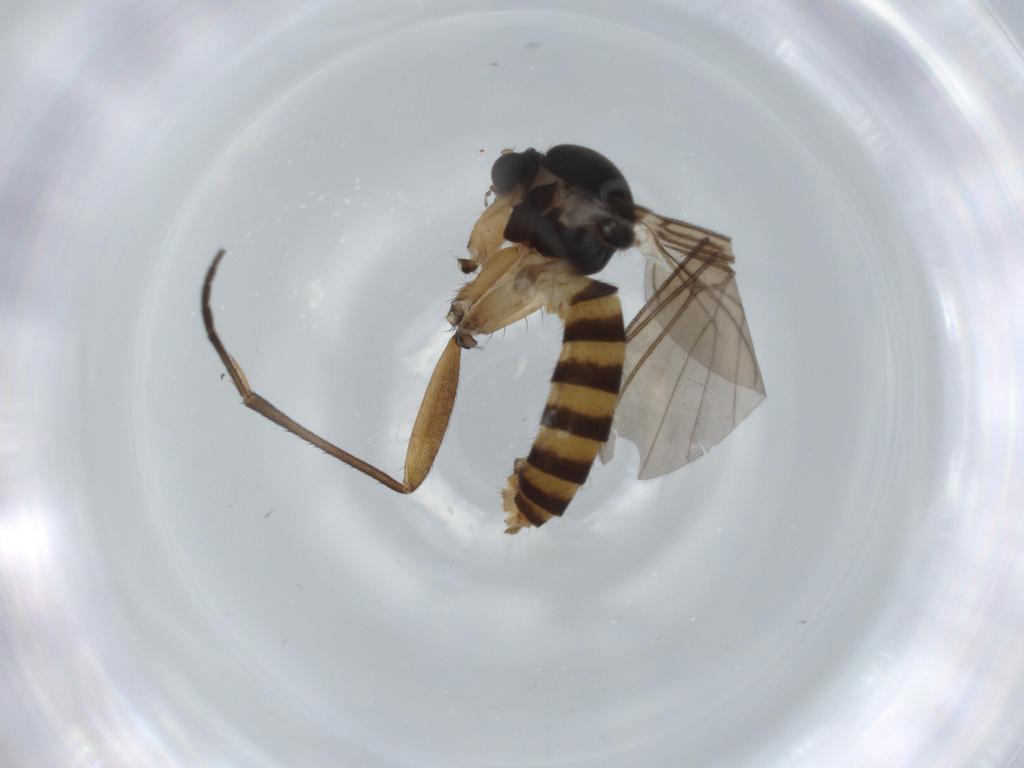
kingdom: Animalia
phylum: Arthropoda
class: Insecta
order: Diptera
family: Mycetophilidae
